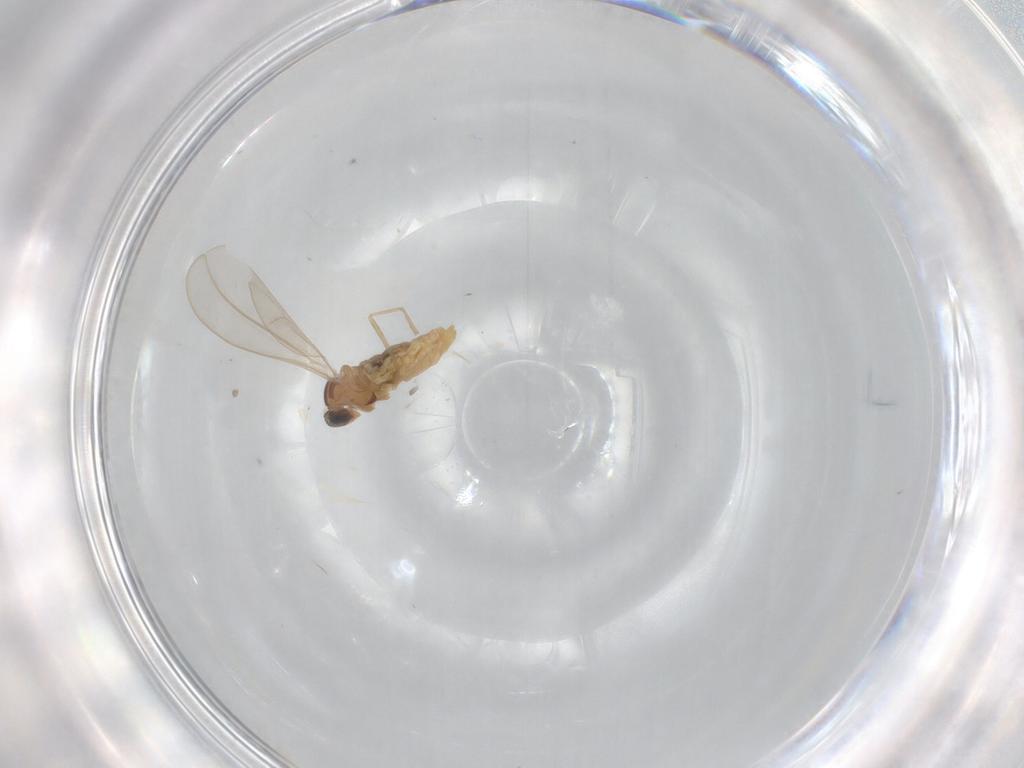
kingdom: Animalia
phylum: Arthropoda
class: Insecta
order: Diptera
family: Cecidomyiidae
